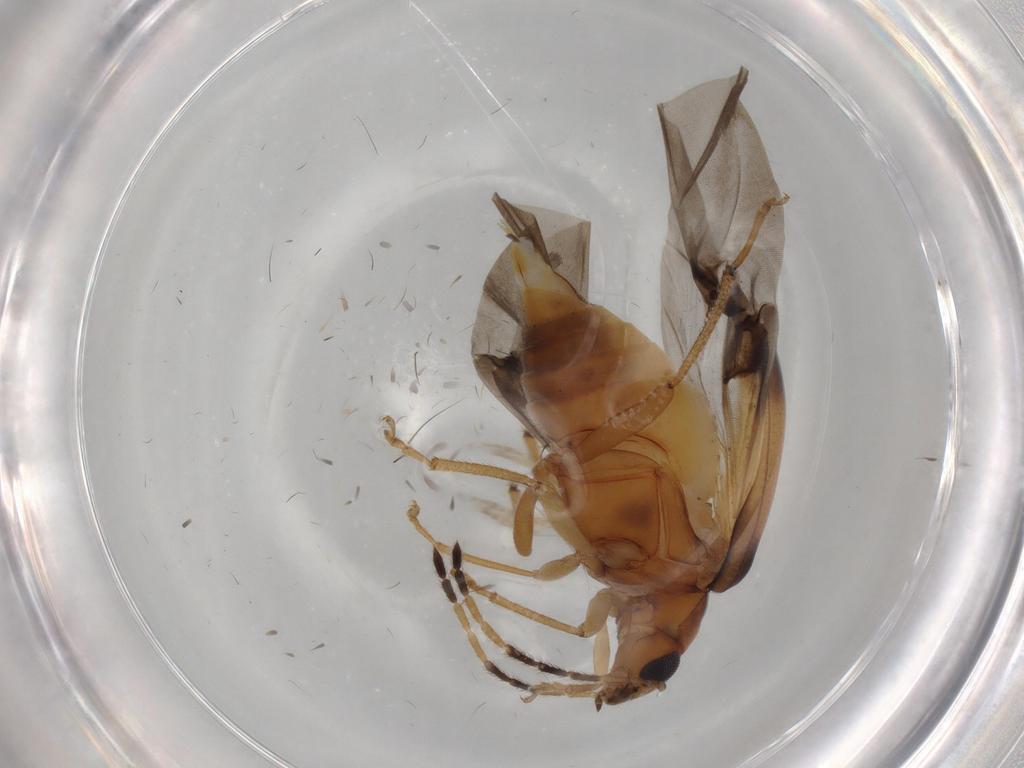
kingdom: Animalia
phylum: Arthropoda
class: Insecta
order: Coleoptera
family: Chrysomelidae
